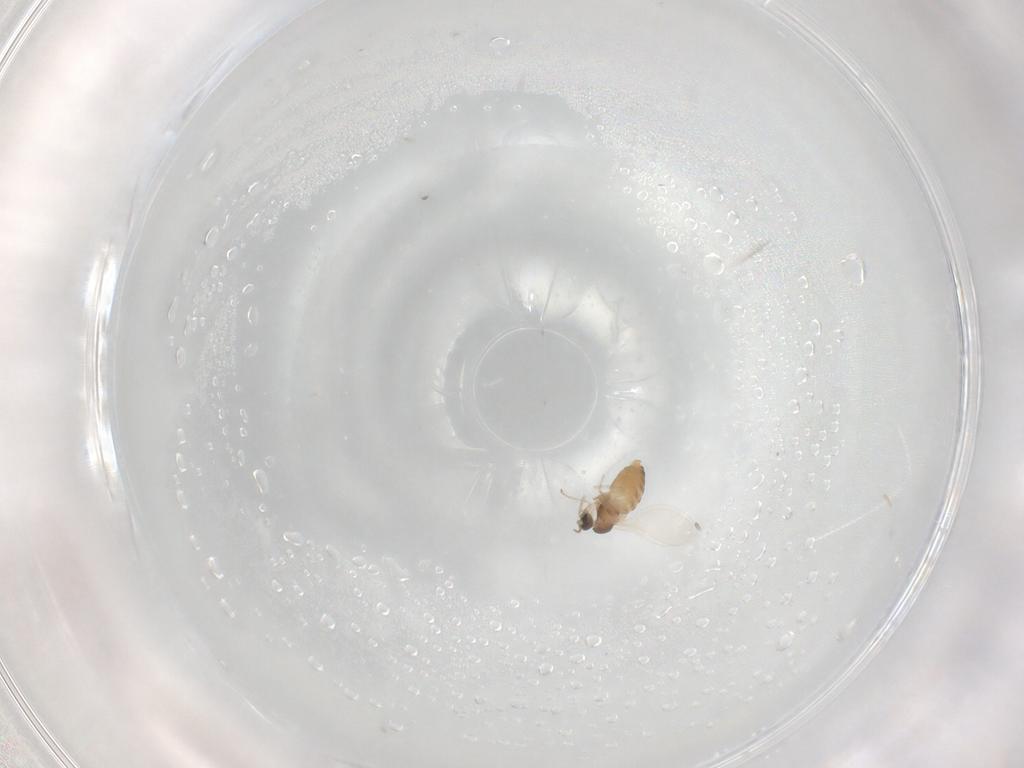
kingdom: Animalia
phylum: Arthropoda
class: Insecta
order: Diptera
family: Cecidomyiidae
